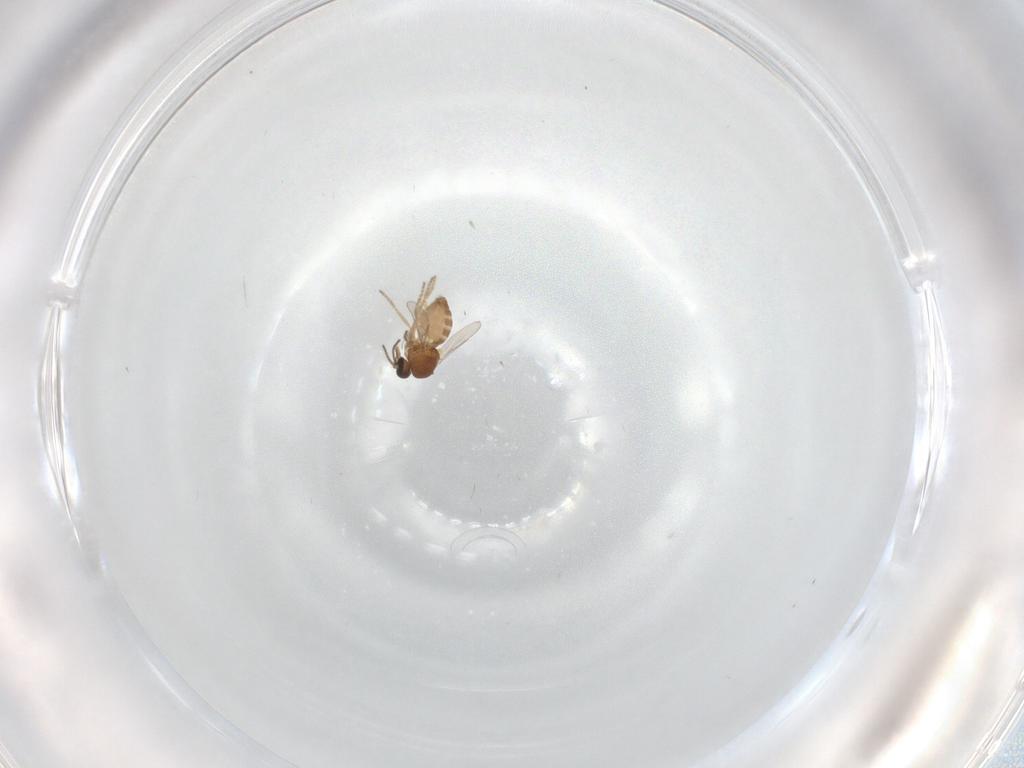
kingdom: Animalia
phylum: Arthropoda
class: Insecta
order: Diptera
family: Ceratopogonidae
